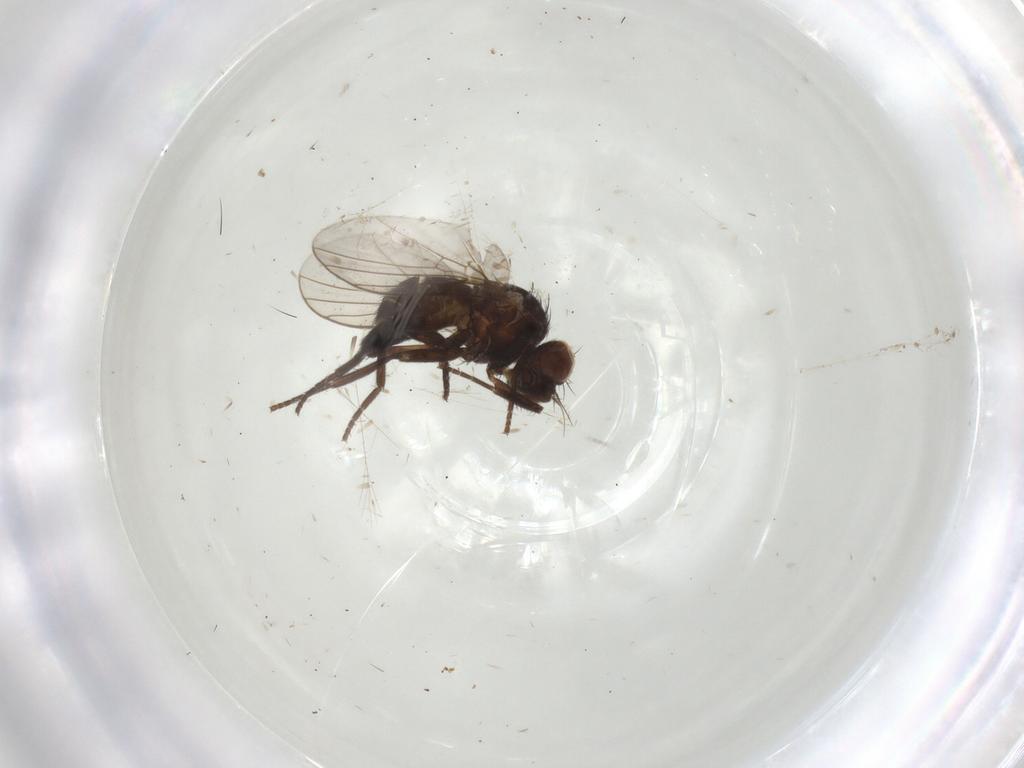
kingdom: Animalia
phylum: Arthropoda
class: Insecta
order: Diptera
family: Agromyzidae
